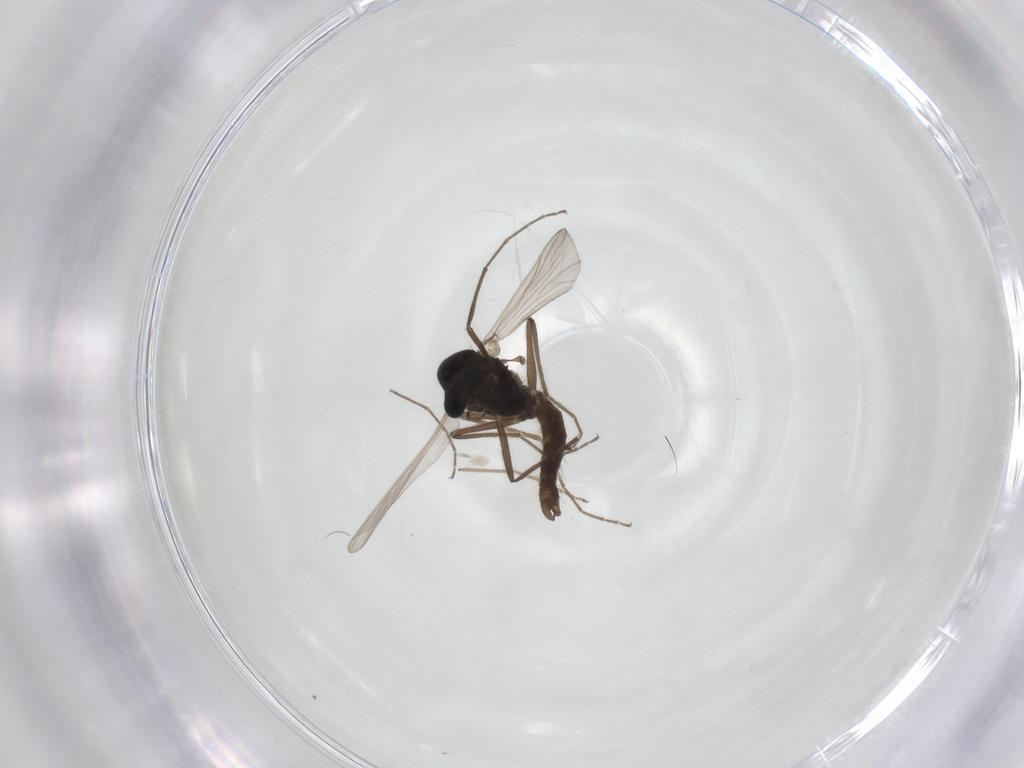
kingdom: Animalia
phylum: Arthropoda
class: Insecta
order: Diptera
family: Chironomidae
